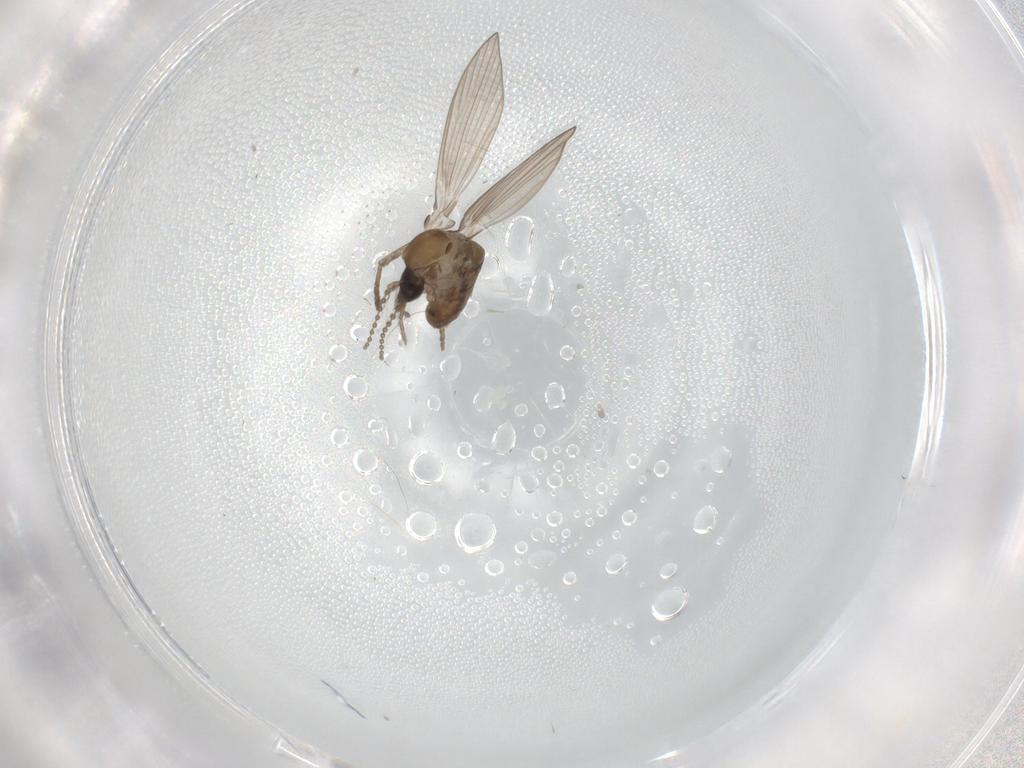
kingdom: Animalia
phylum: Arthropoda
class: Insecta
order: Diptera
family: Psychodidae
